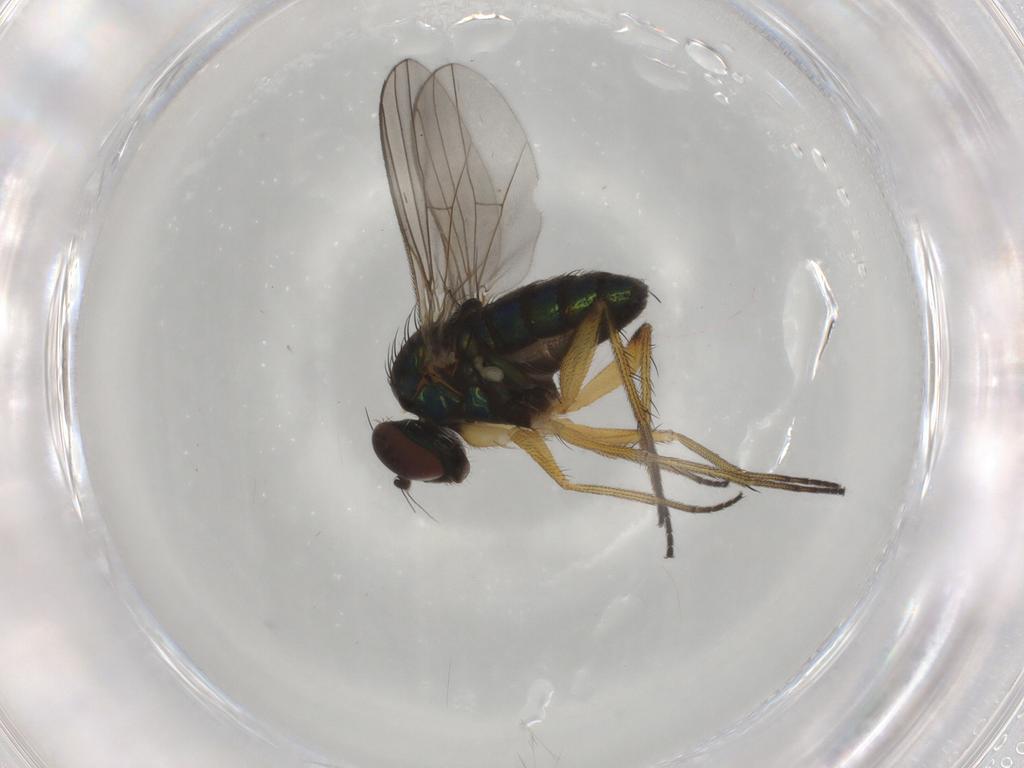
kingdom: Animalia
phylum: Arthropoda
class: Insecta
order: Diptera
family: Dolichopodidae
